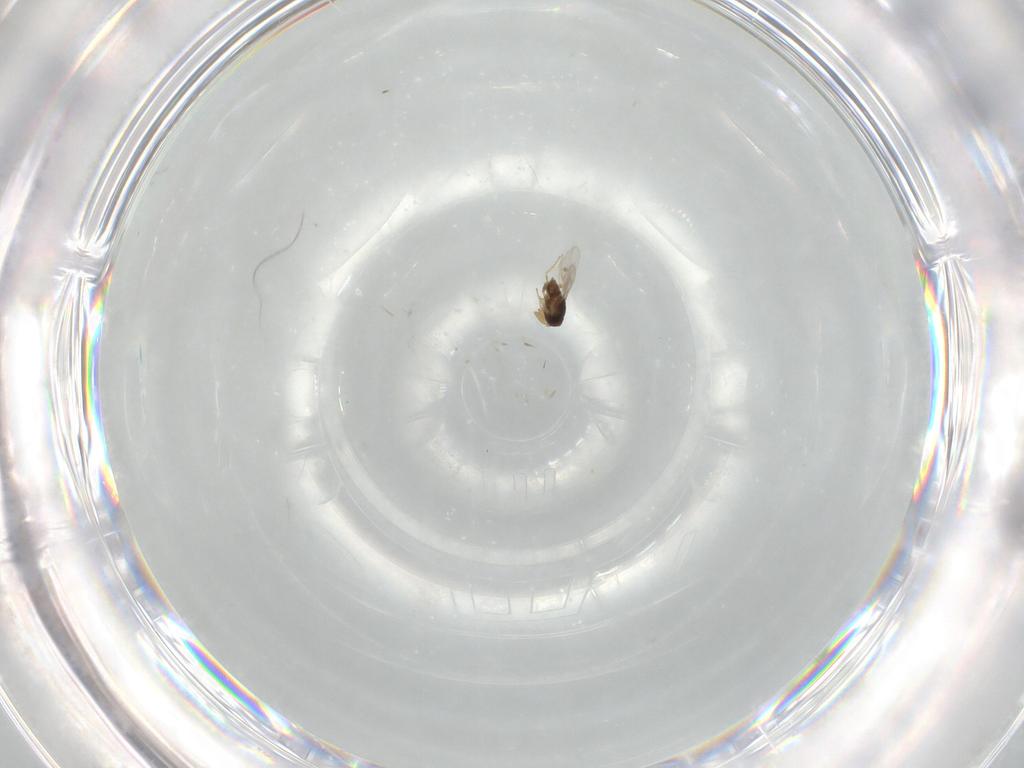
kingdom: Animalia
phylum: Arthropoda
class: Insecta
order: Hymenoptera
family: Encyrtidae
